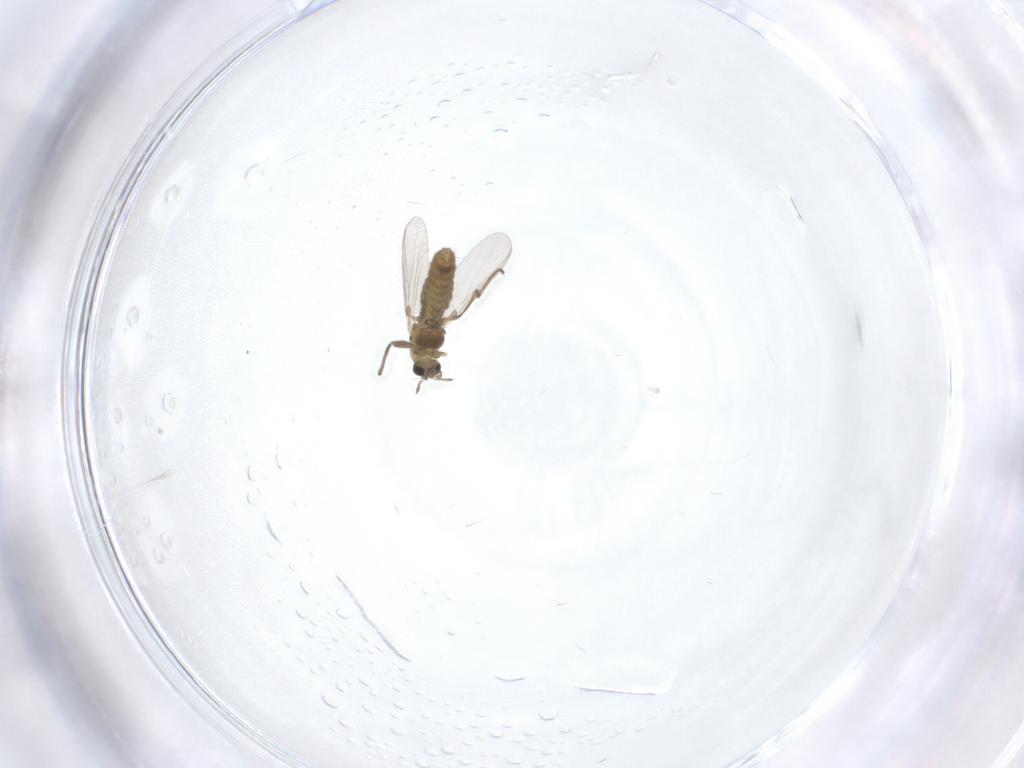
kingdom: Animalia
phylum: Arthropoda
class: Insecta
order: Diptera
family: Chironomidae
